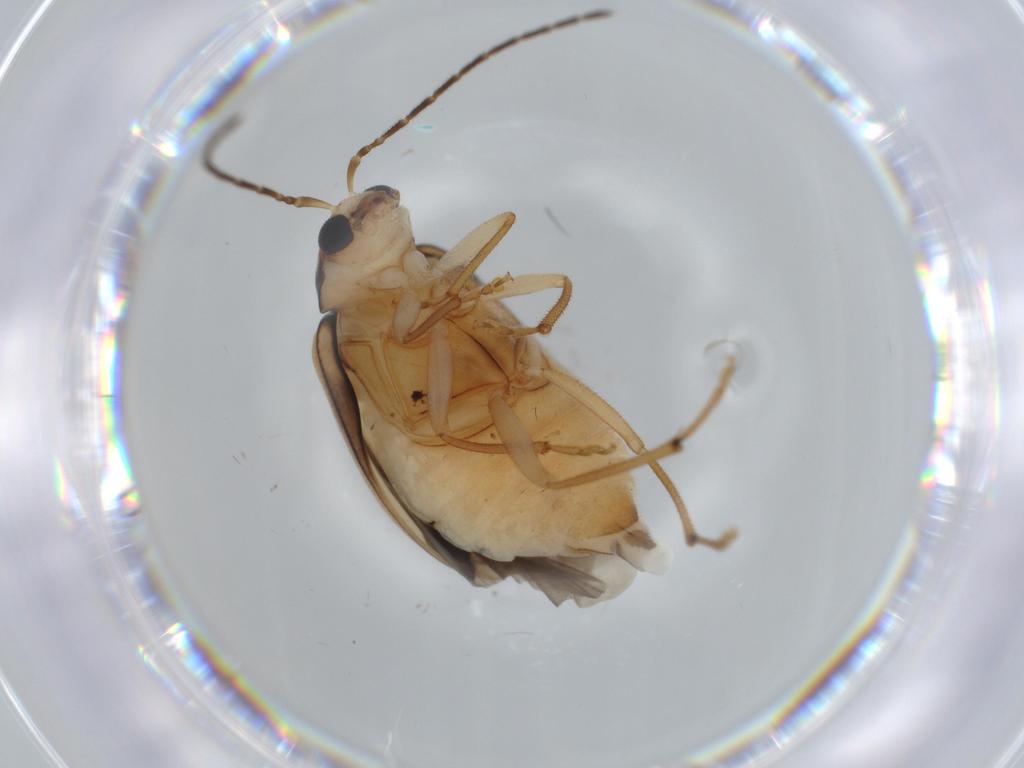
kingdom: Animalia
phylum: Arthropoda
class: Insecta
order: Coleoptera
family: Chrysomelidae
